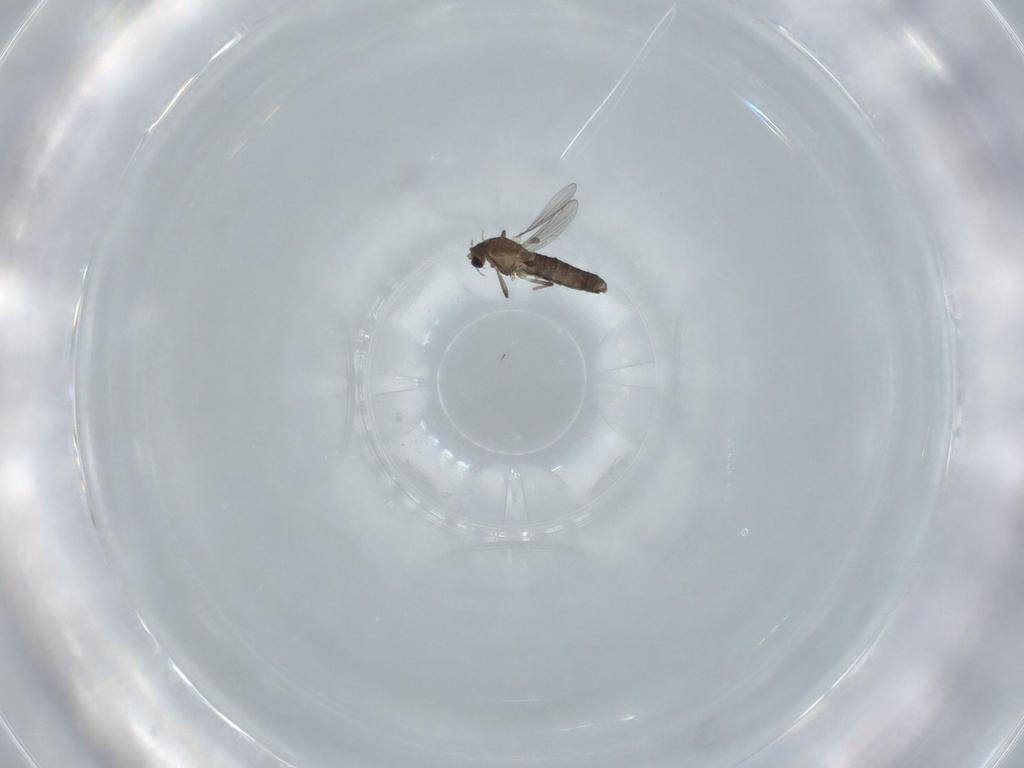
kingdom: Animalia
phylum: Arthropoda
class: Insecta
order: Diptera
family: Chironomidae
